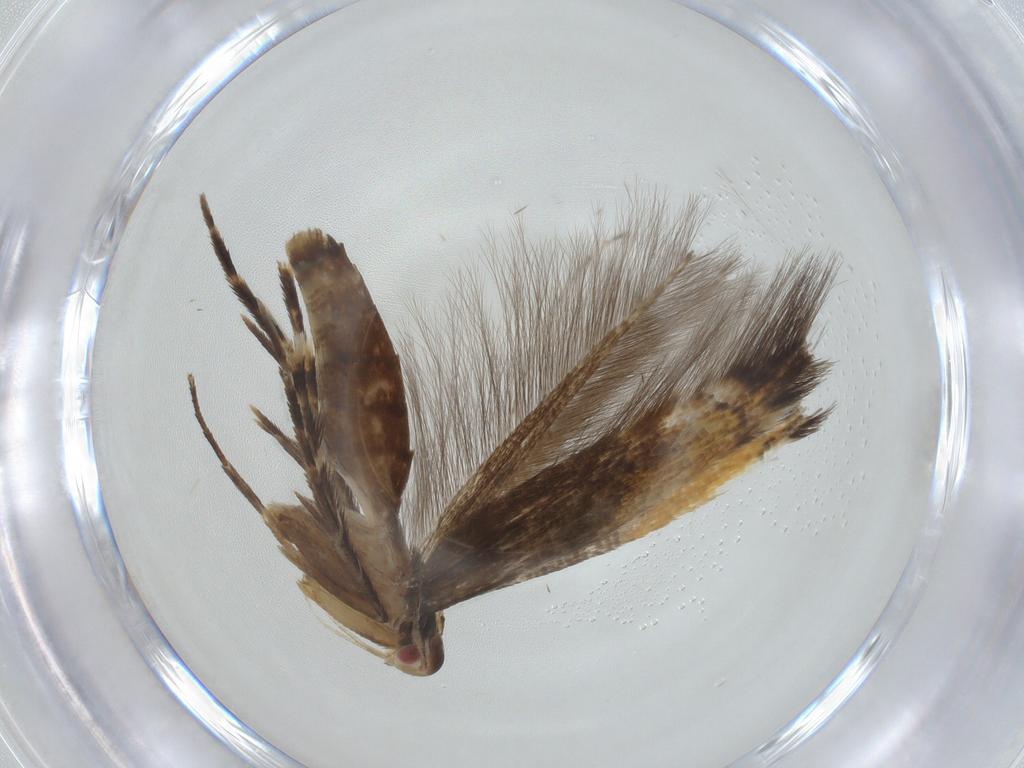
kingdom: Animalia
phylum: Arthropoda
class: Insecta
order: Lepidoptera
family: Cosmopterigidae
